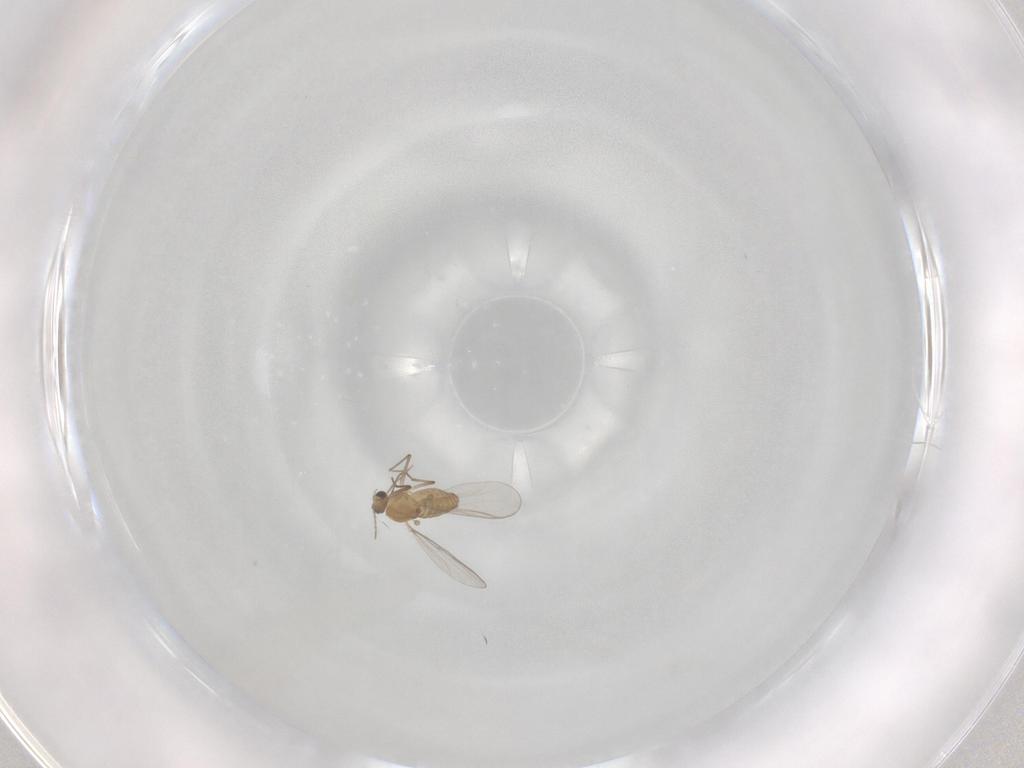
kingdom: Animalia
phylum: Arthropoda
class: Insecta
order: Diptera
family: Chironomidae
